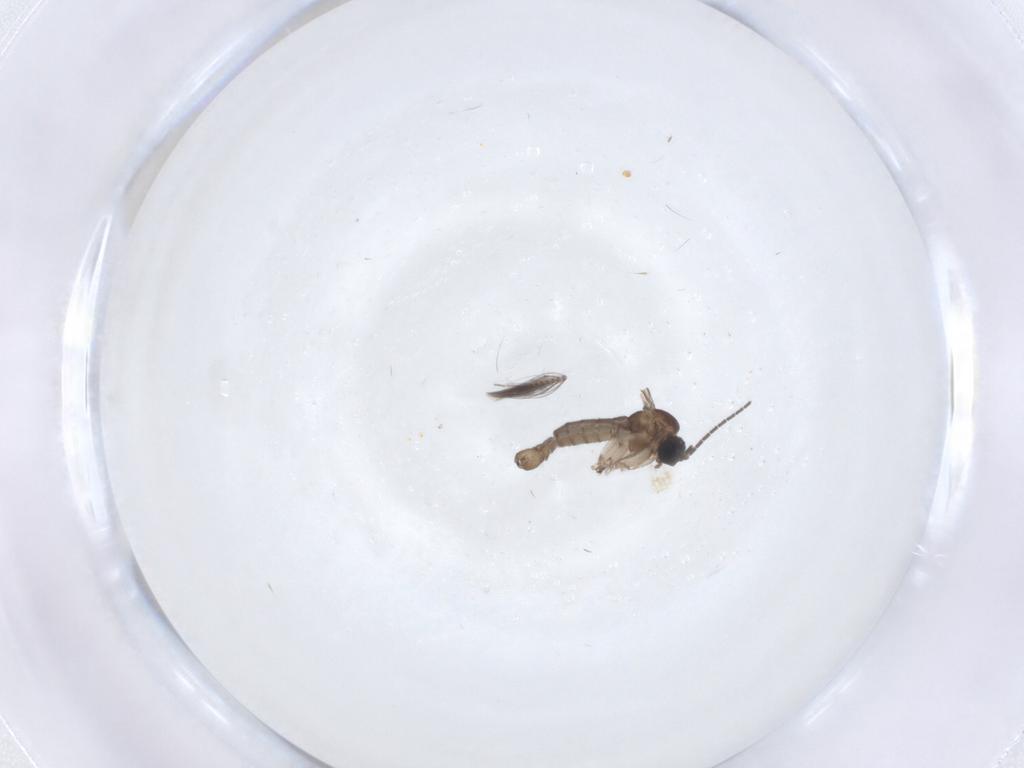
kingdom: Animalia
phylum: Arthropoda
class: Insecta
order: Diptera
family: Sciaridae
